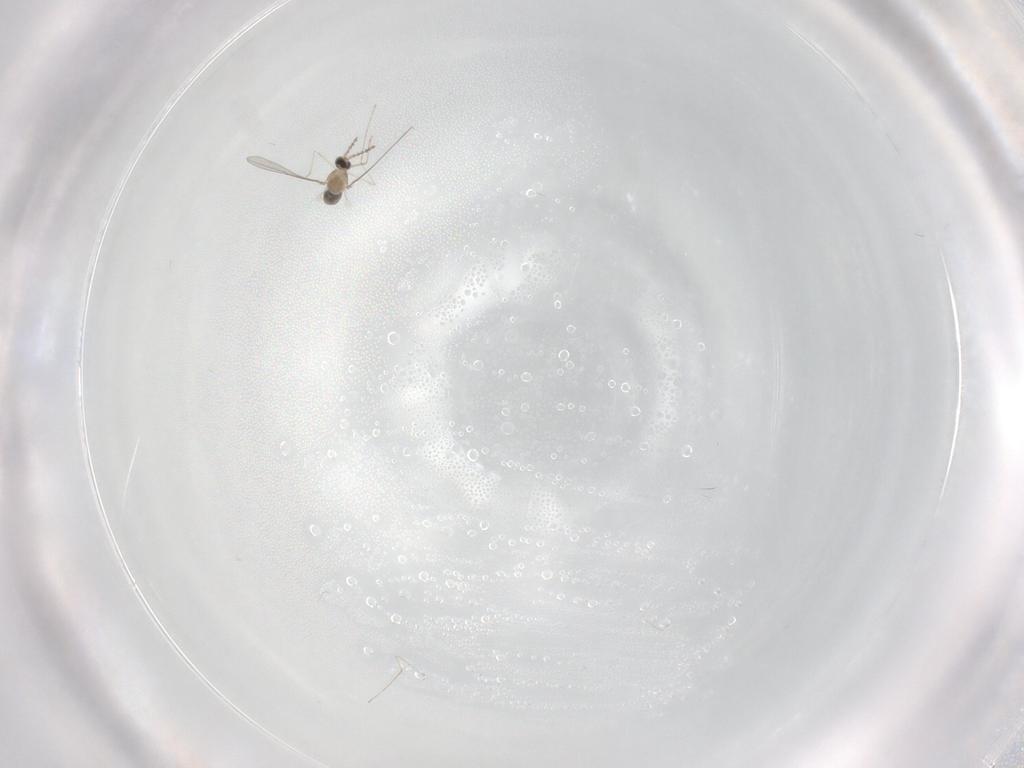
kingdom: Animalia
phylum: Arthropoda
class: Insecta
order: Diptera
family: Cecidomyiidae
